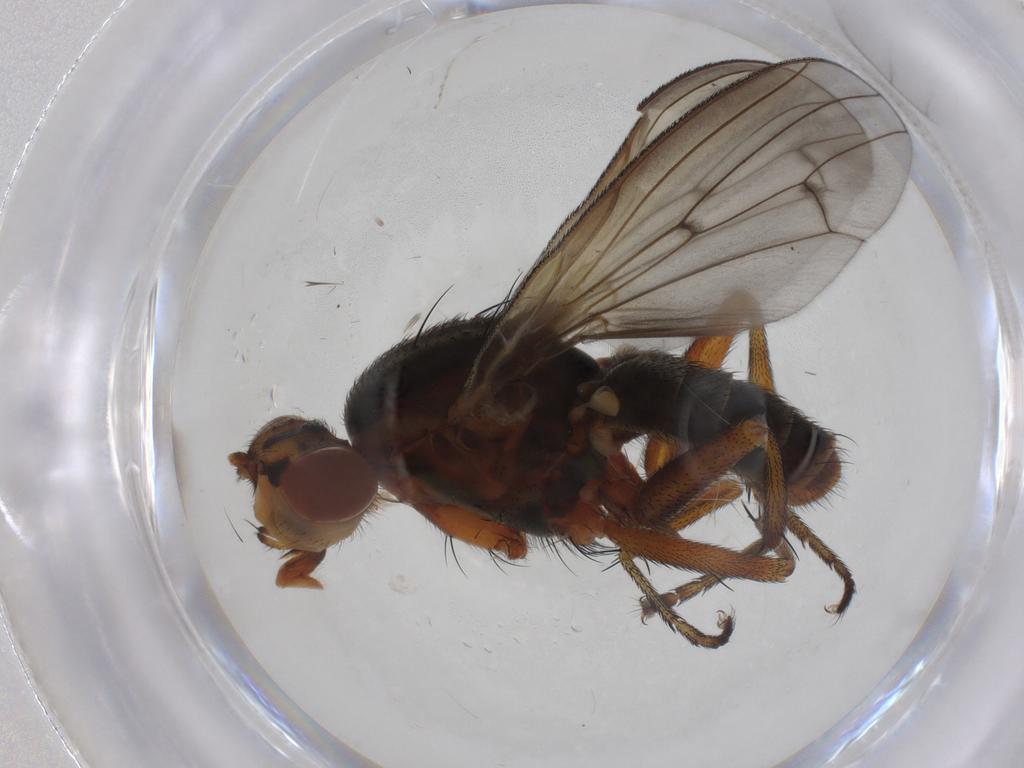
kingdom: Animalia
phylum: Arthropoda
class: Insecta
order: Diptera
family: Chironomidae
